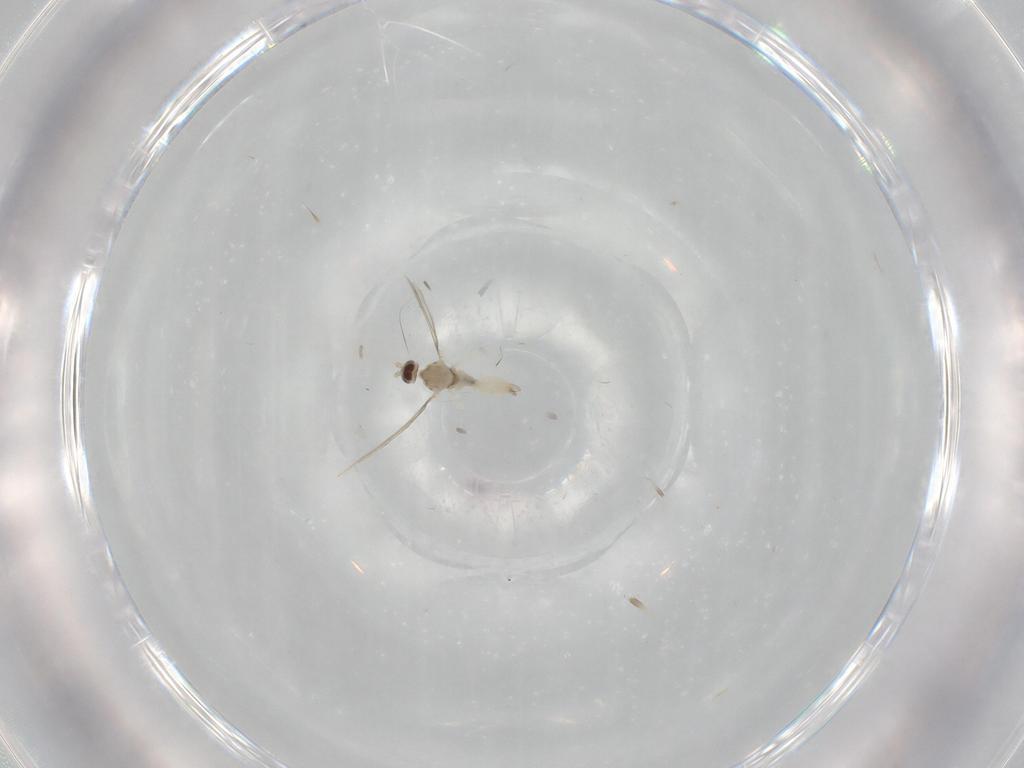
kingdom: Animalia
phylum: Arthropoda
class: Insecta
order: Diptera
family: Cecidomyiidae
